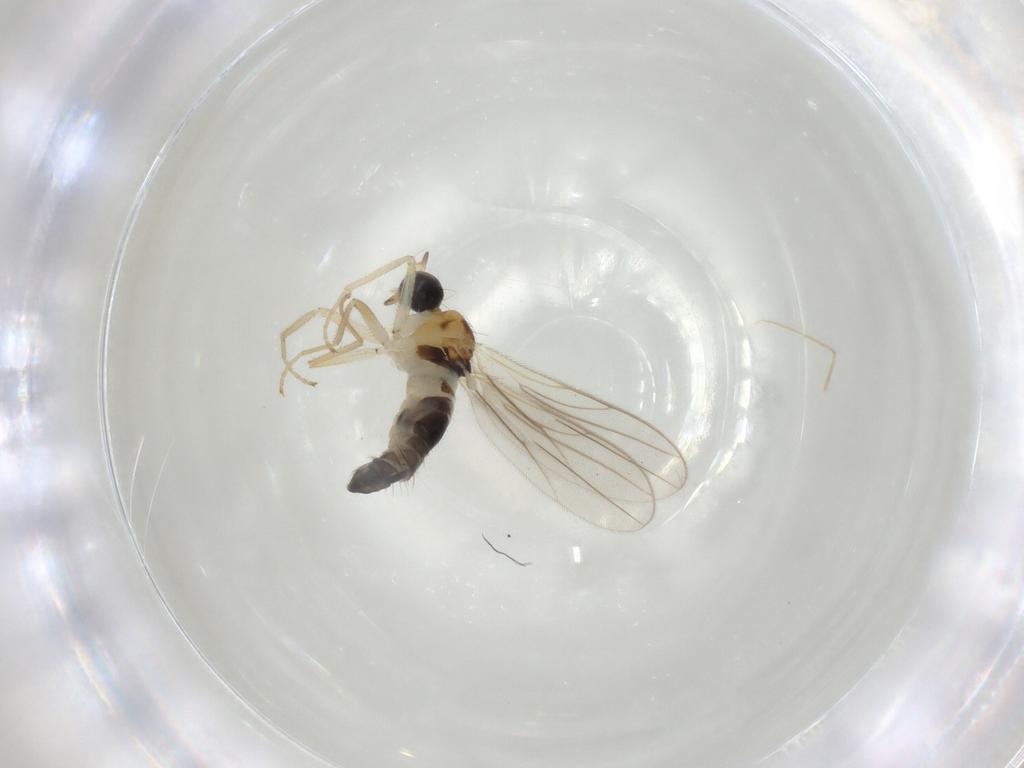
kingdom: Animalia
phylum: Arthropoda
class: Insecta
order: Diptera
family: Hybotidae
